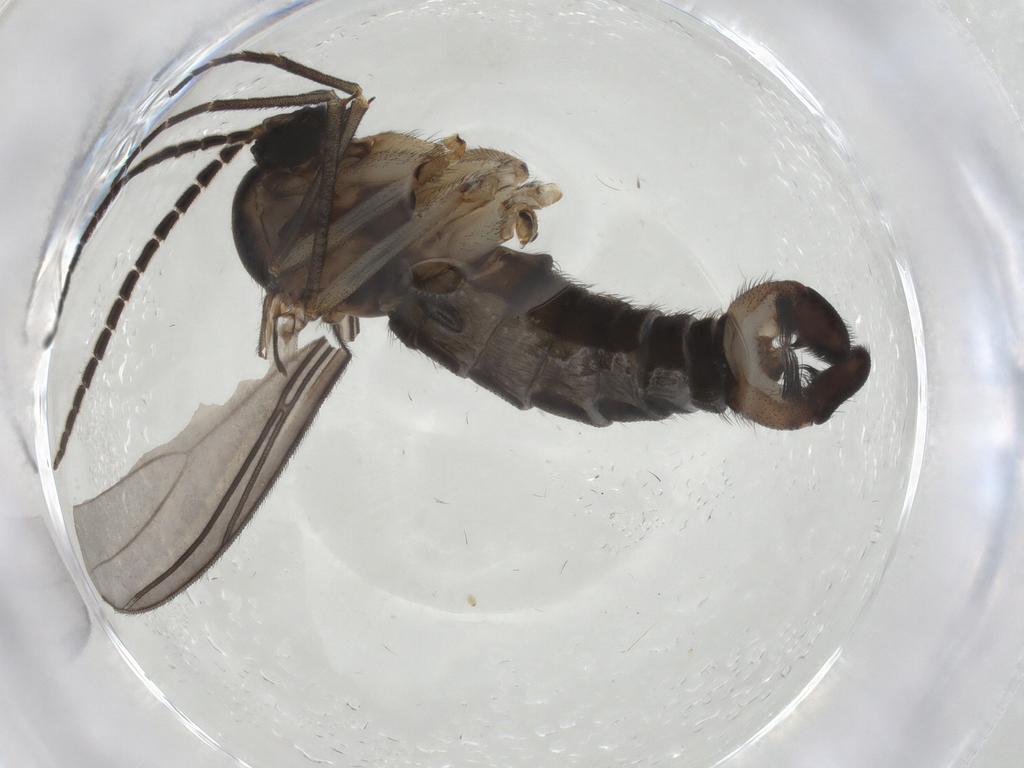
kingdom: Animalia
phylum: Arthropoda
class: Insecta
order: Diptera
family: Sciaridae
